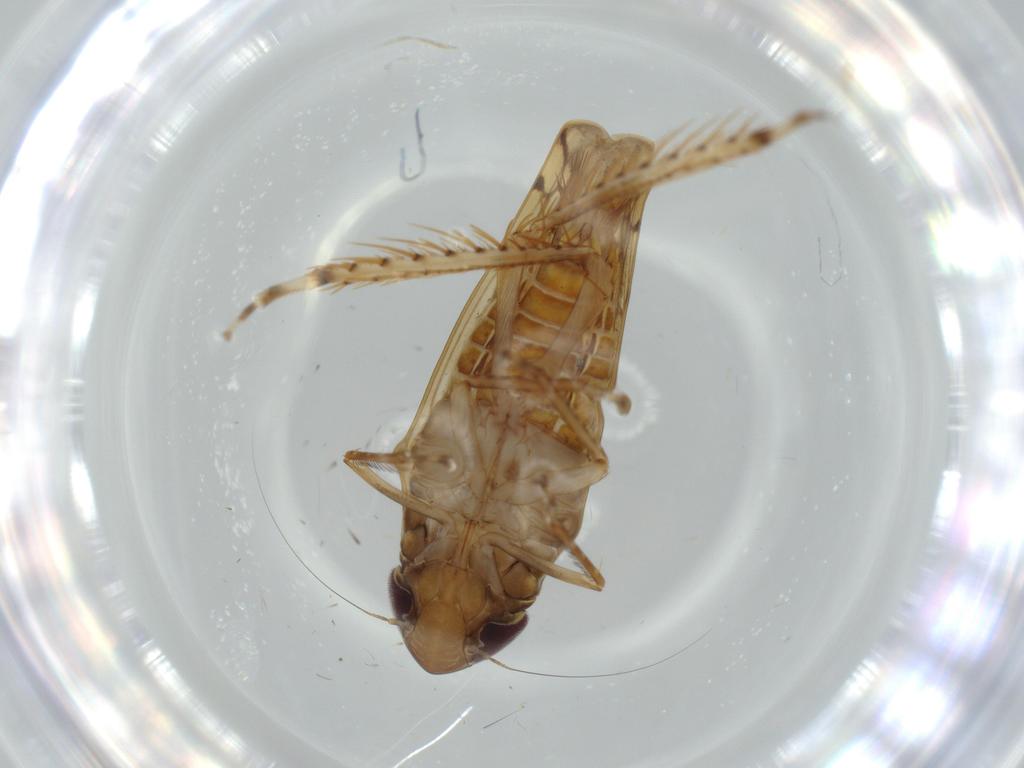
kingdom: Animalia
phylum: Arthropoda
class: Insecta
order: Hemiptera
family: Cicadellidae
